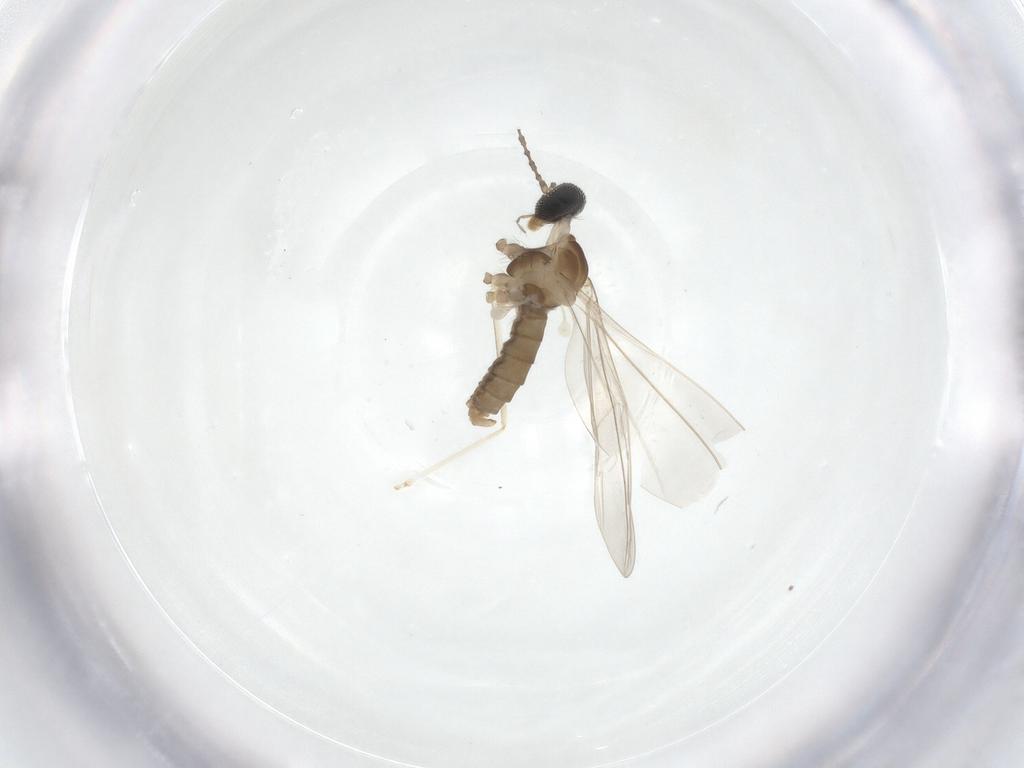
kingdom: Animalia
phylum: Arthropoda
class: Insecta
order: Diptera
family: Cecidomyiidae
